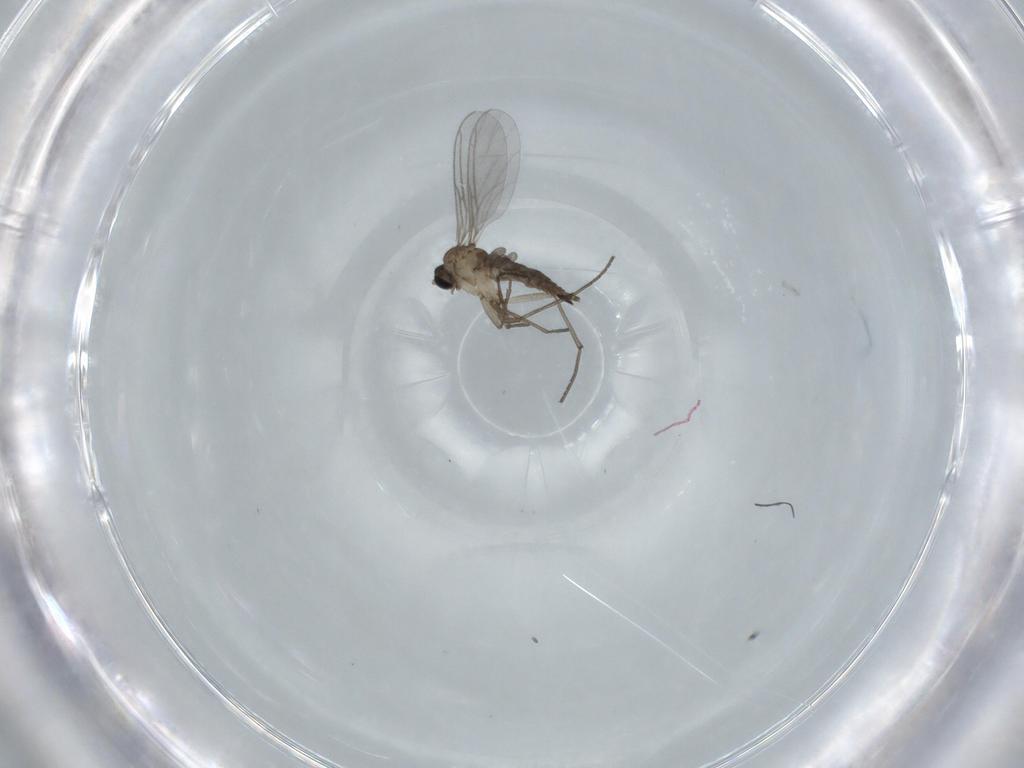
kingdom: Animalia
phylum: Arthropoda
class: Insecta
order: Diptera
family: Sciaridae
